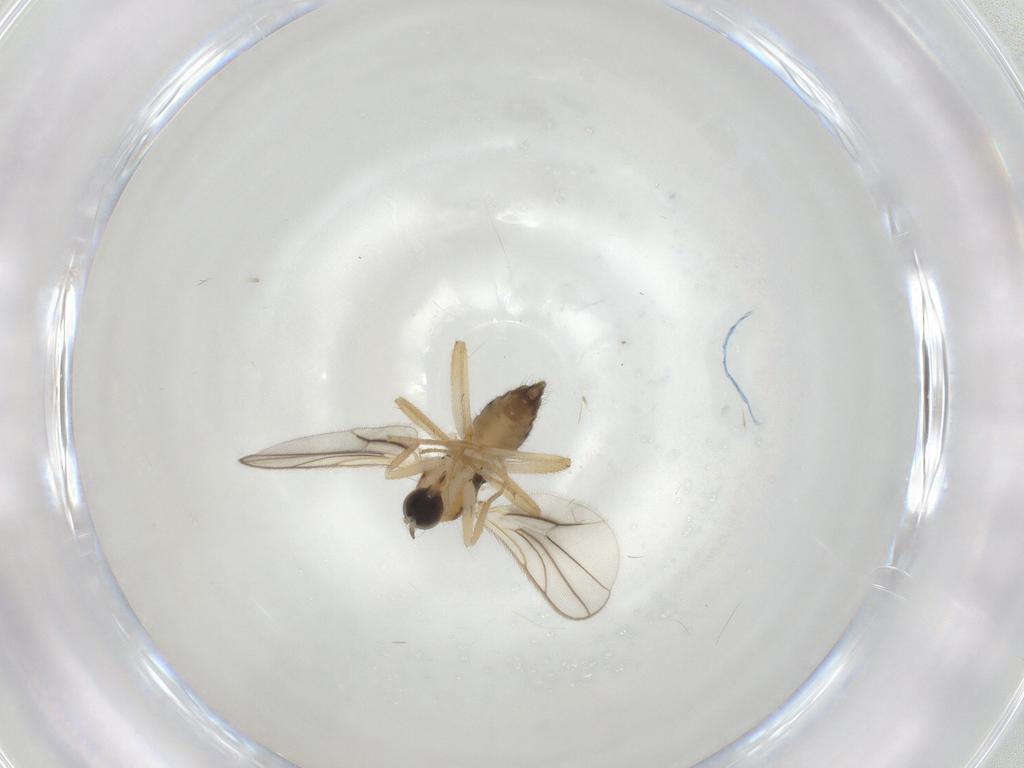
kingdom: Animalia
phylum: Arthropoda
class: Insecta
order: Diptera
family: Hybotidae
